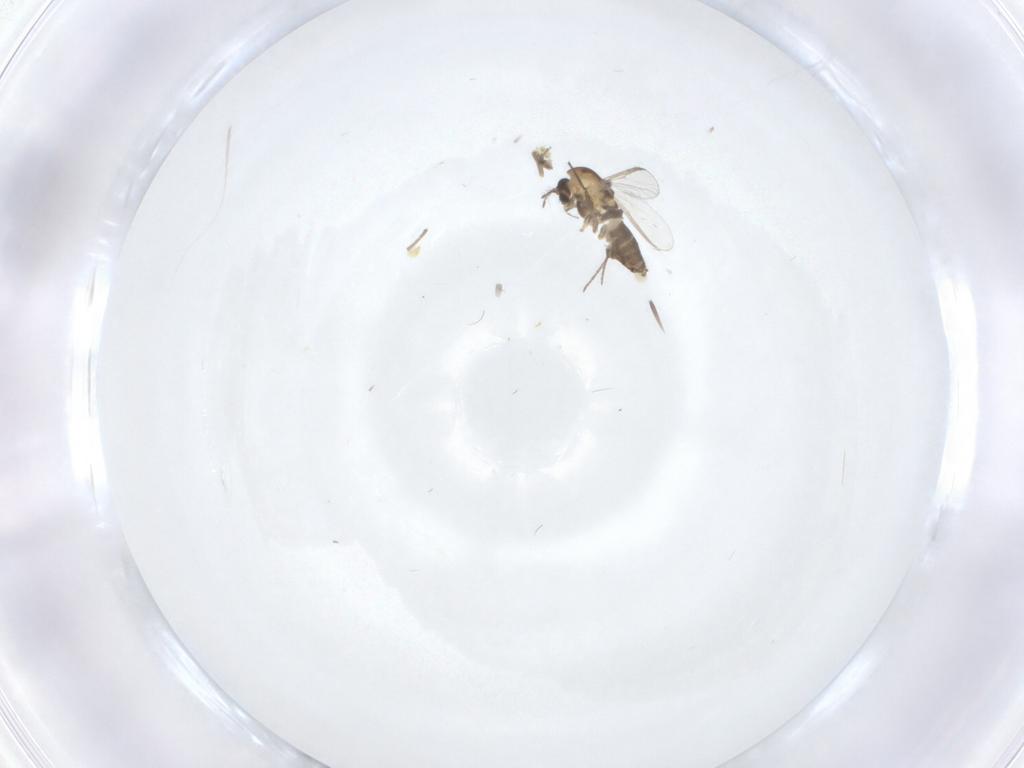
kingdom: Animalia
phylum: Arthropoda
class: Insecta
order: Diptera
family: Chironomidae
